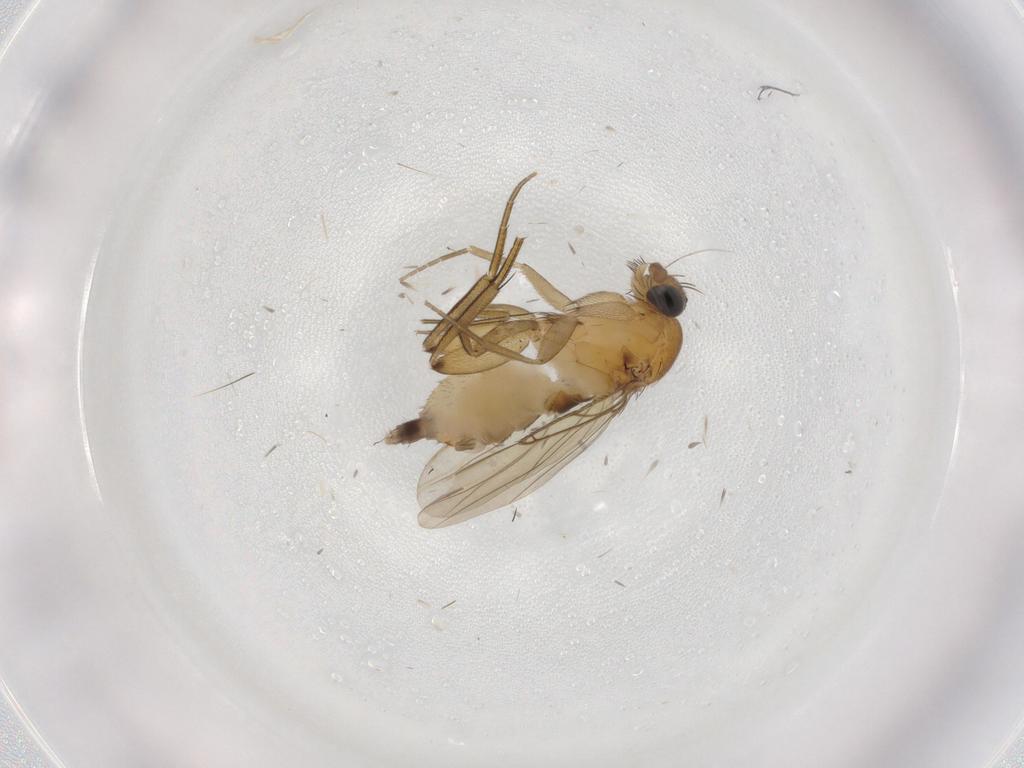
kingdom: Animalia
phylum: Arthropoda
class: Insecta
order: Diptera
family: Phoridae
